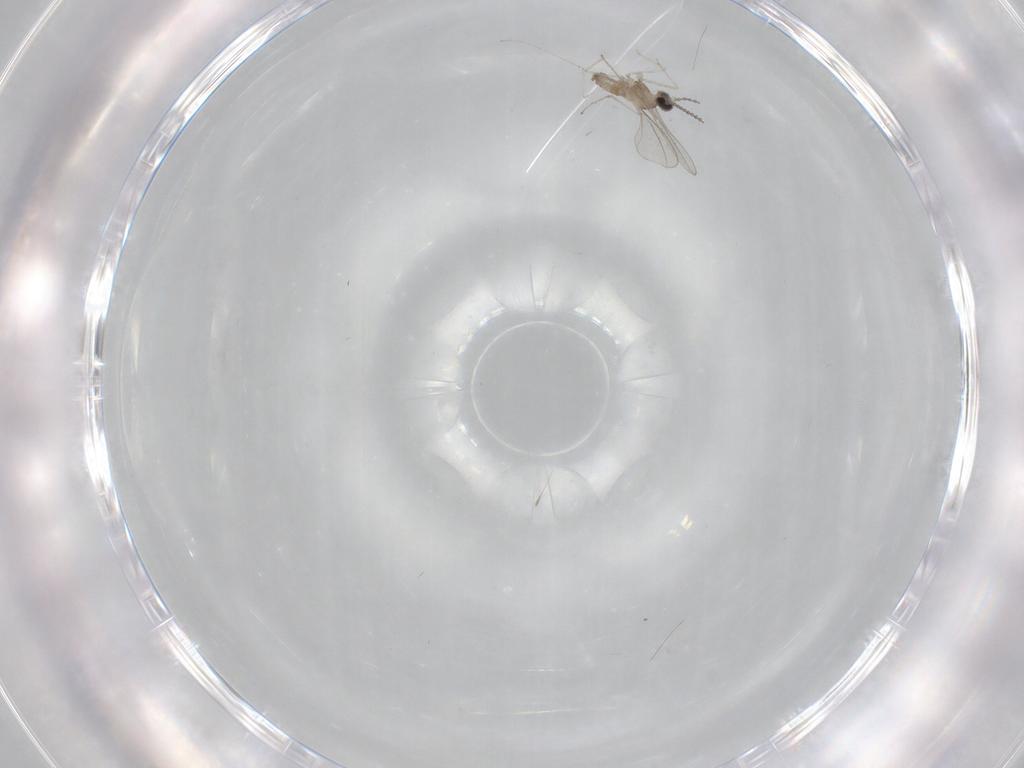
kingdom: Animalia
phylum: Arthropoda
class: Insecta
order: Diptera
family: Cecidomyiidae
